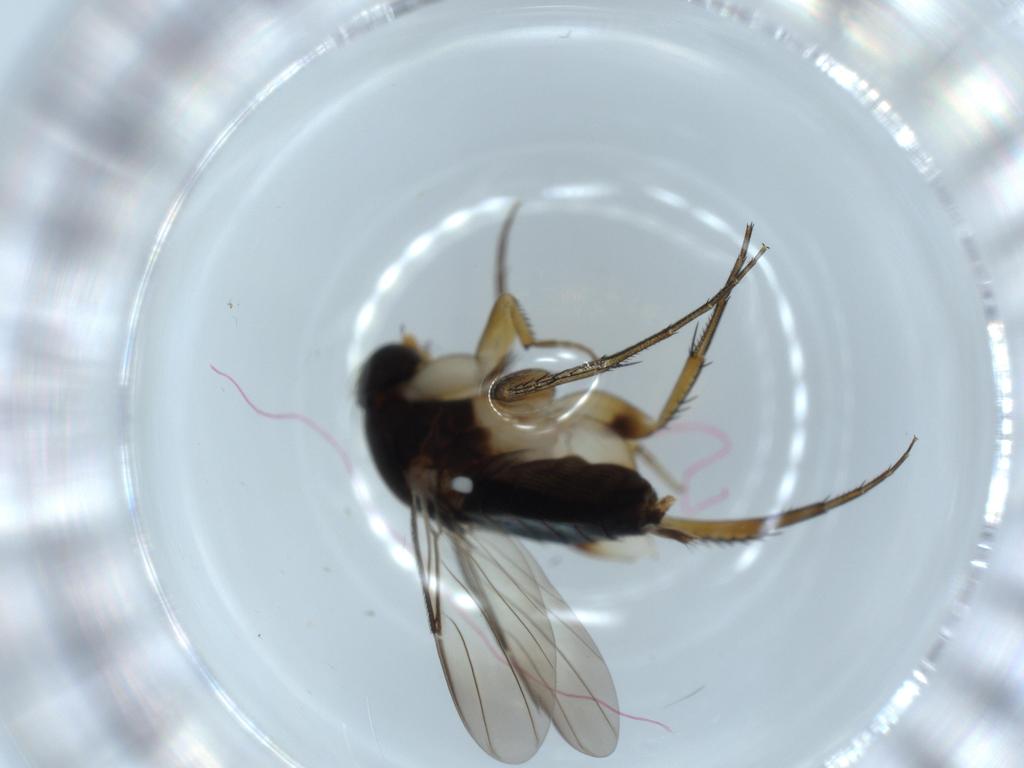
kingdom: Animalia
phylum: Arthropoda
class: Insecta
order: Diptera
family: Phoridae
